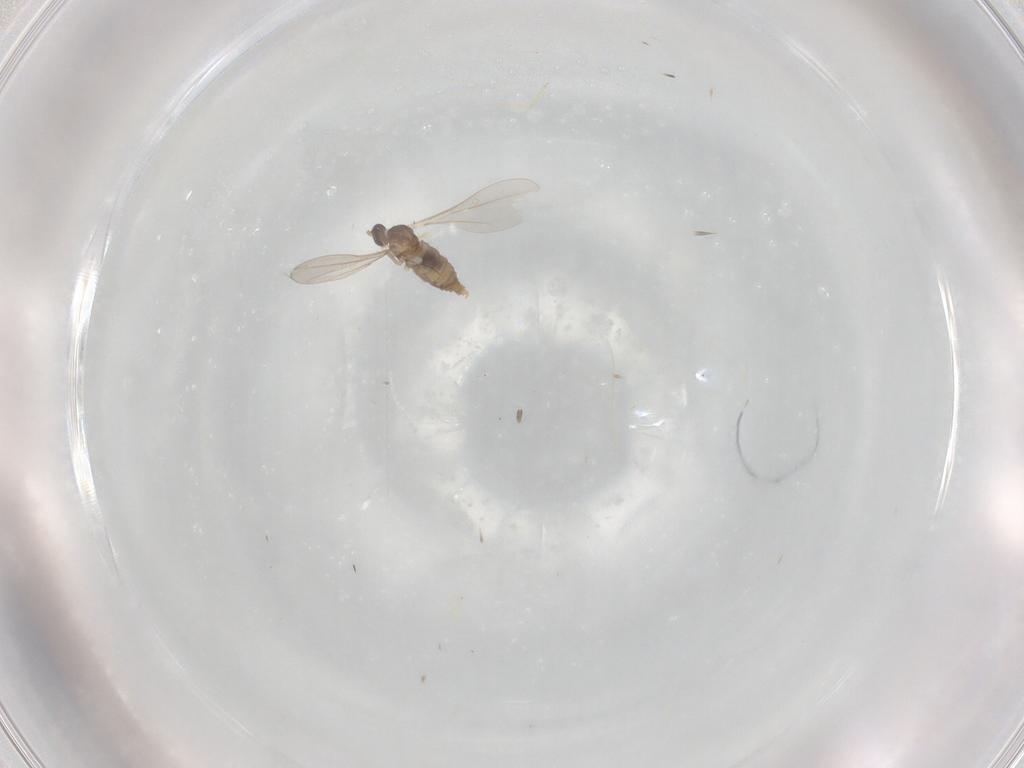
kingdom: Animalia
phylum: Arthropoda
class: Insecta
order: Diptera
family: Cecidomyiidae
